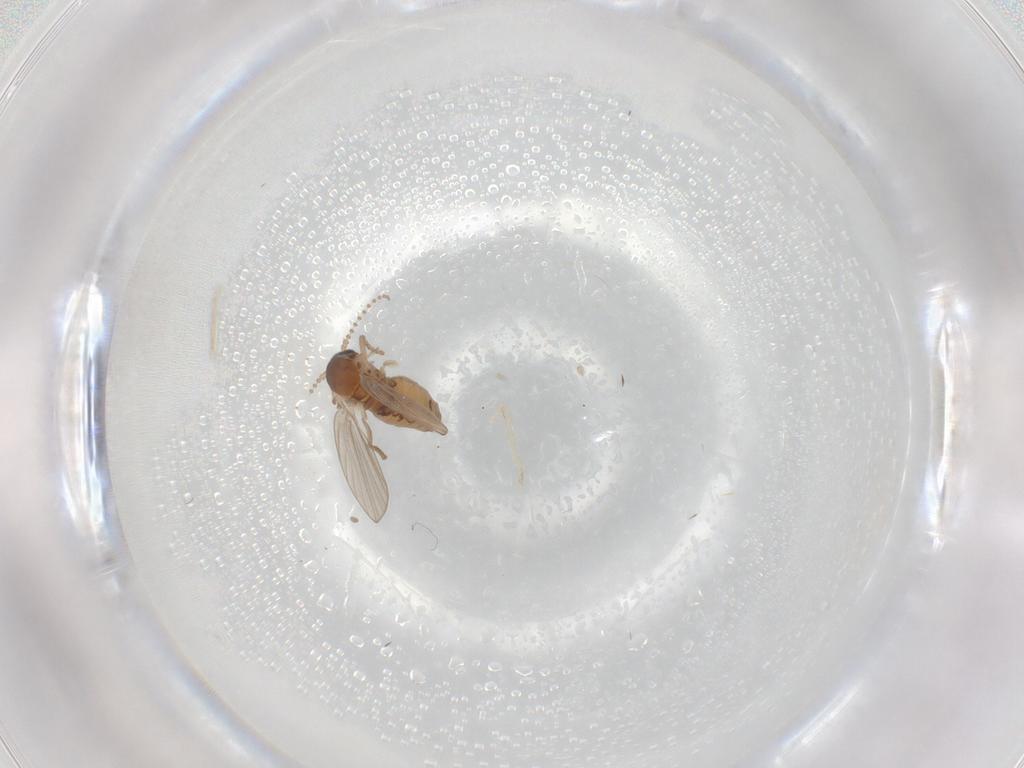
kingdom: Animalia
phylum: Arthropoda
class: Insecta
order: Diptera
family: Psychodidae
